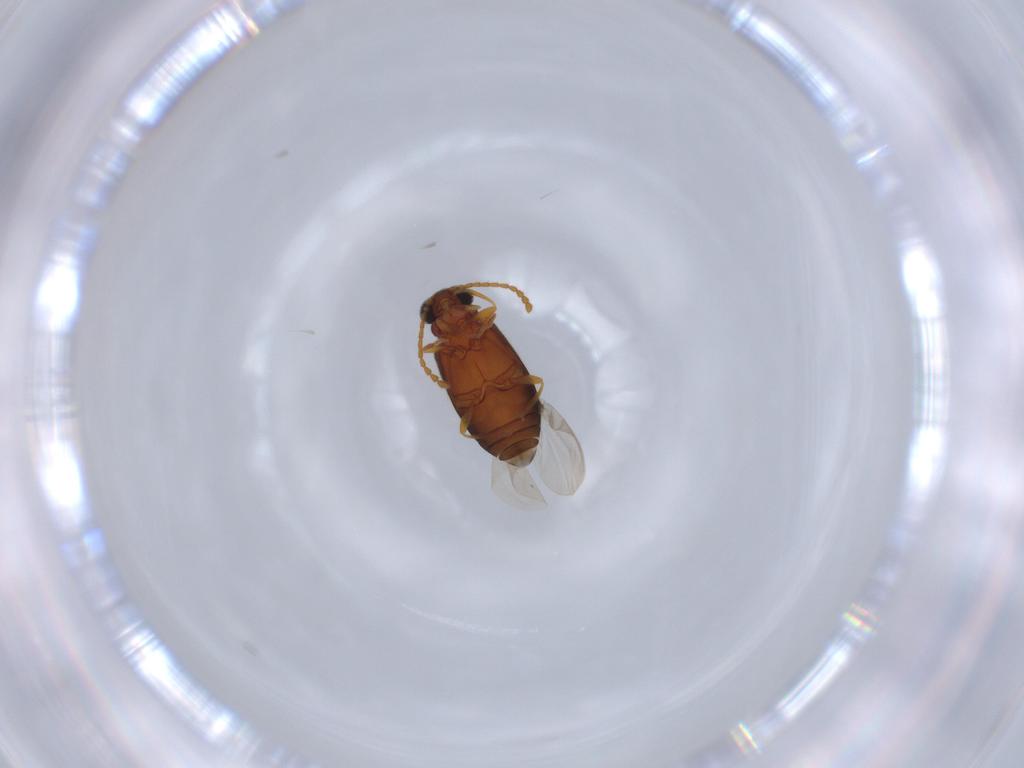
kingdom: Animalia
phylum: Arthropoda
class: Insecta
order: Coleoptera
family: Aderidae
